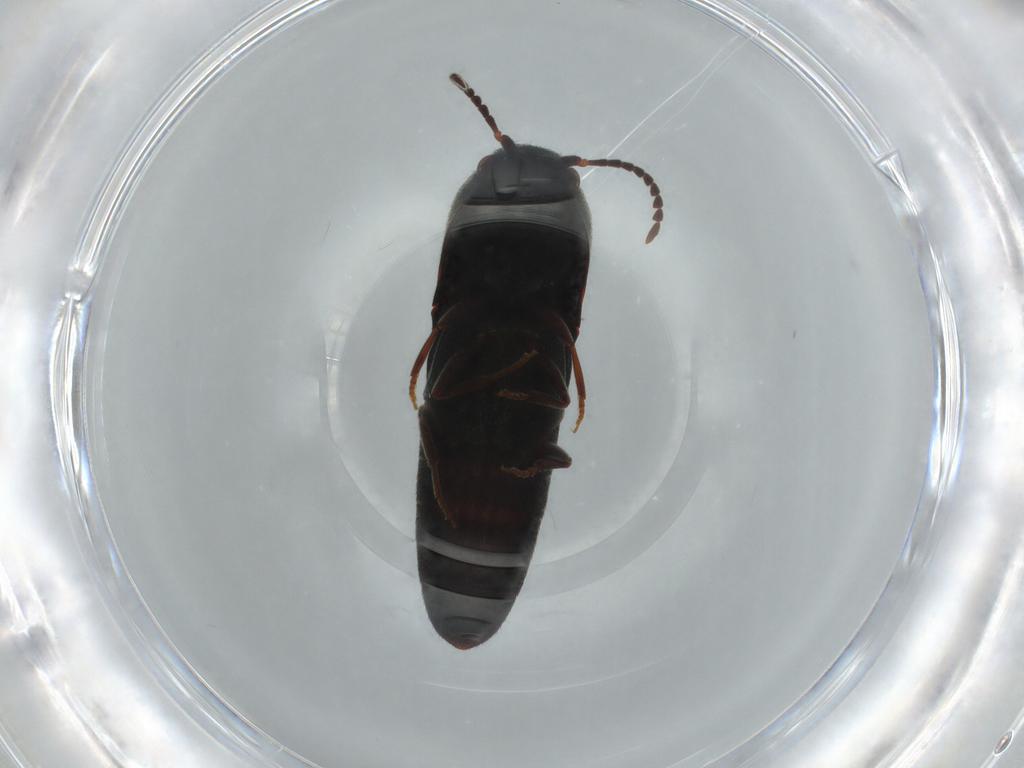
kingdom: Animalia
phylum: Arthropoda
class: Insecta
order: Coleoptera
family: Eucnemidae
